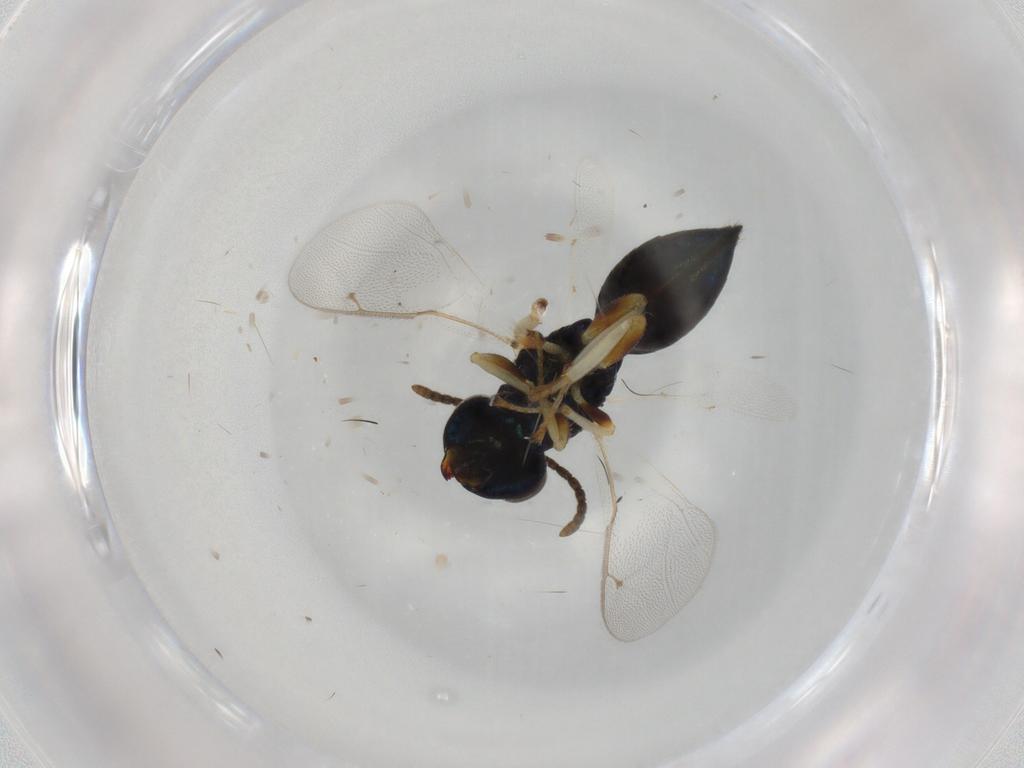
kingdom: Animalia
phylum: Arthropoda
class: Insecta
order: Hymenoptera
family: Pteromalidae
